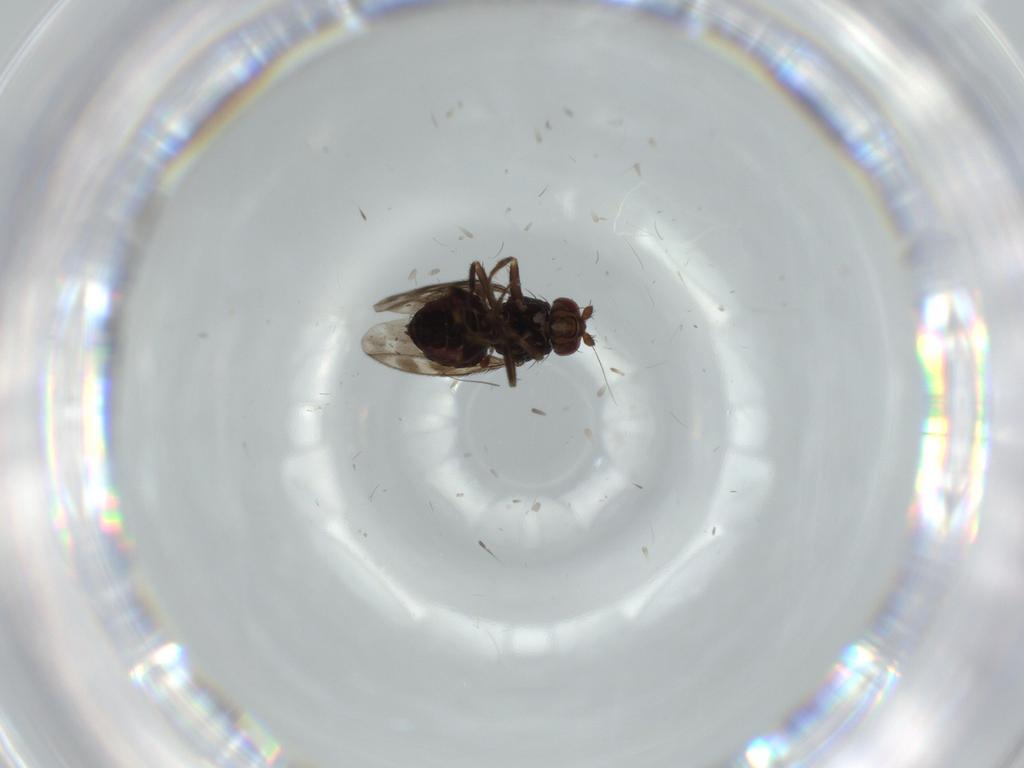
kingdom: Animalia
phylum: Arthropoda
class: Insecta
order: Diptera
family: Sphaeroceridae
